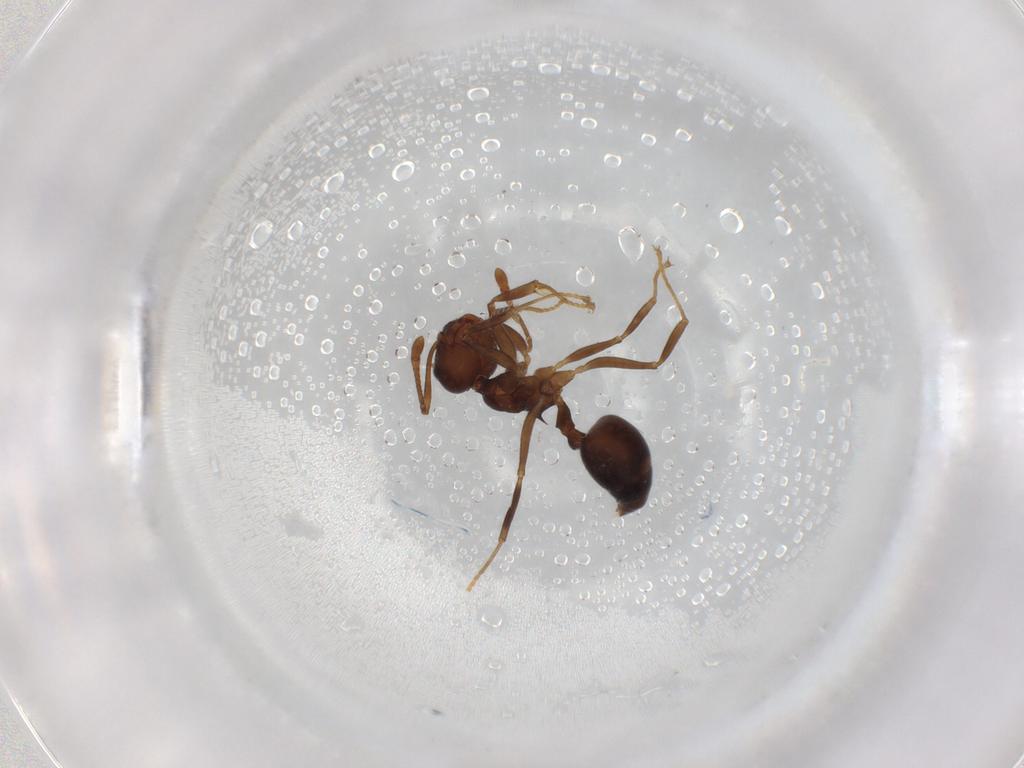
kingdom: Animalia
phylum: Arthropoda
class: Insecta
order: Hymenoptera
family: Formicidae
